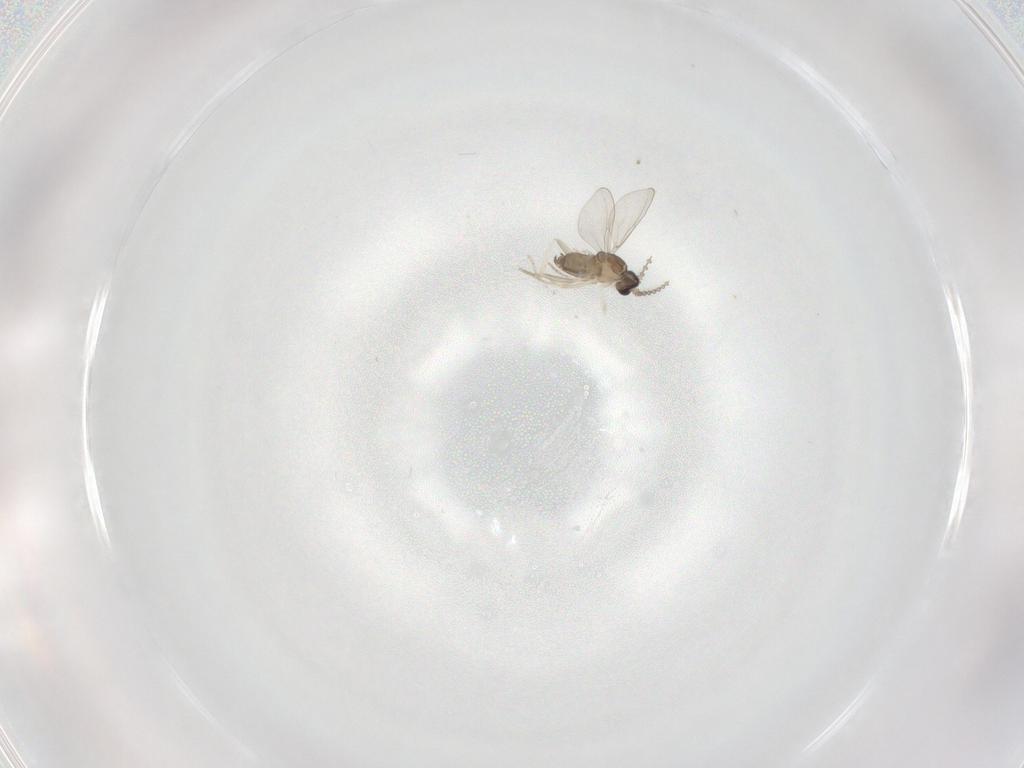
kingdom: Animalia
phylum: Arthropoda
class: Insecta
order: Diptera
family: Cecidomyiidae
